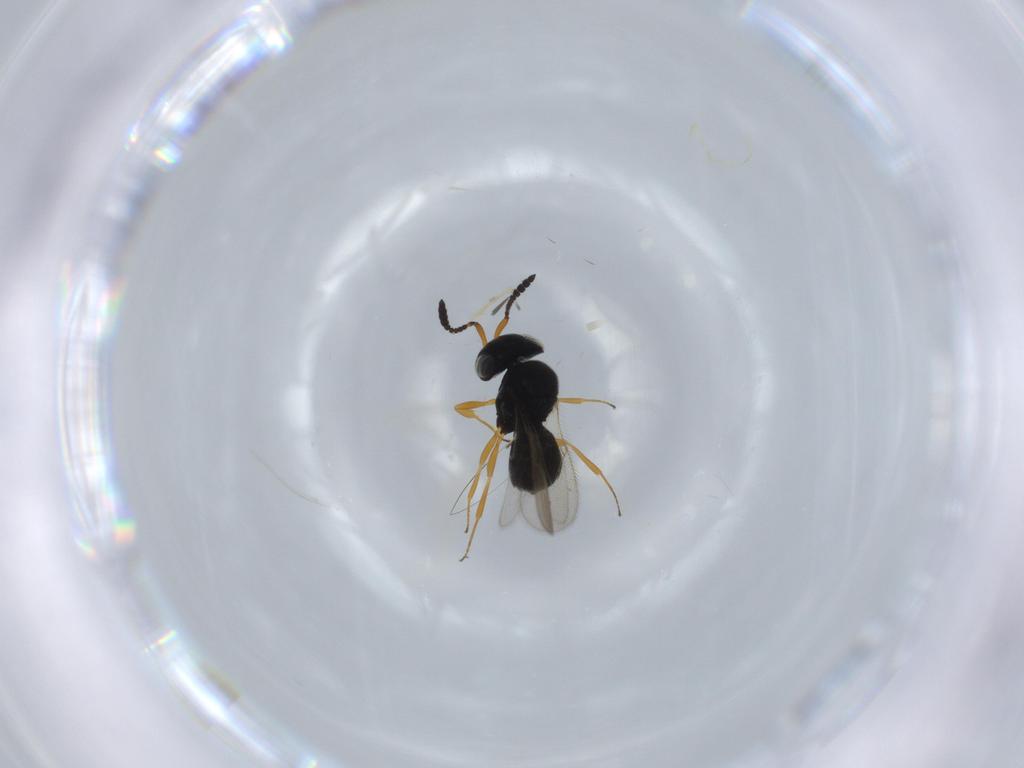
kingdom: Animalia
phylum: Arthropoda
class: Insecta
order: Hymenoptera
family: Scelionidae
